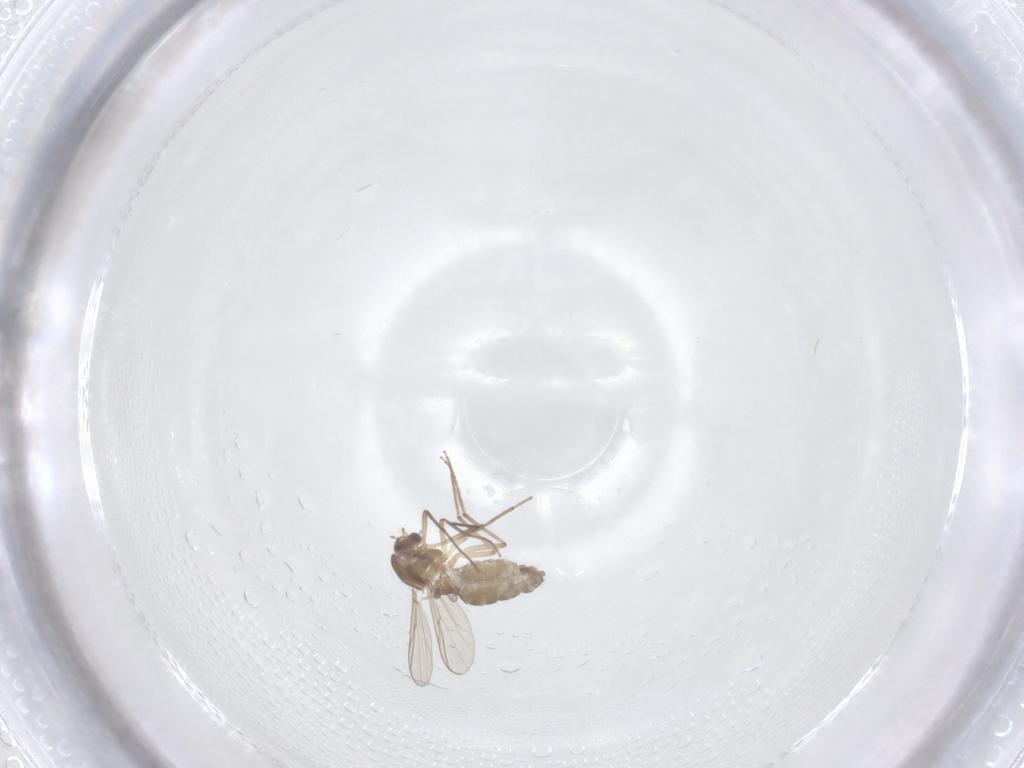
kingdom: Animalia
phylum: Arthropoda
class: Insecta
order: Diptera
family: Chironomidae
